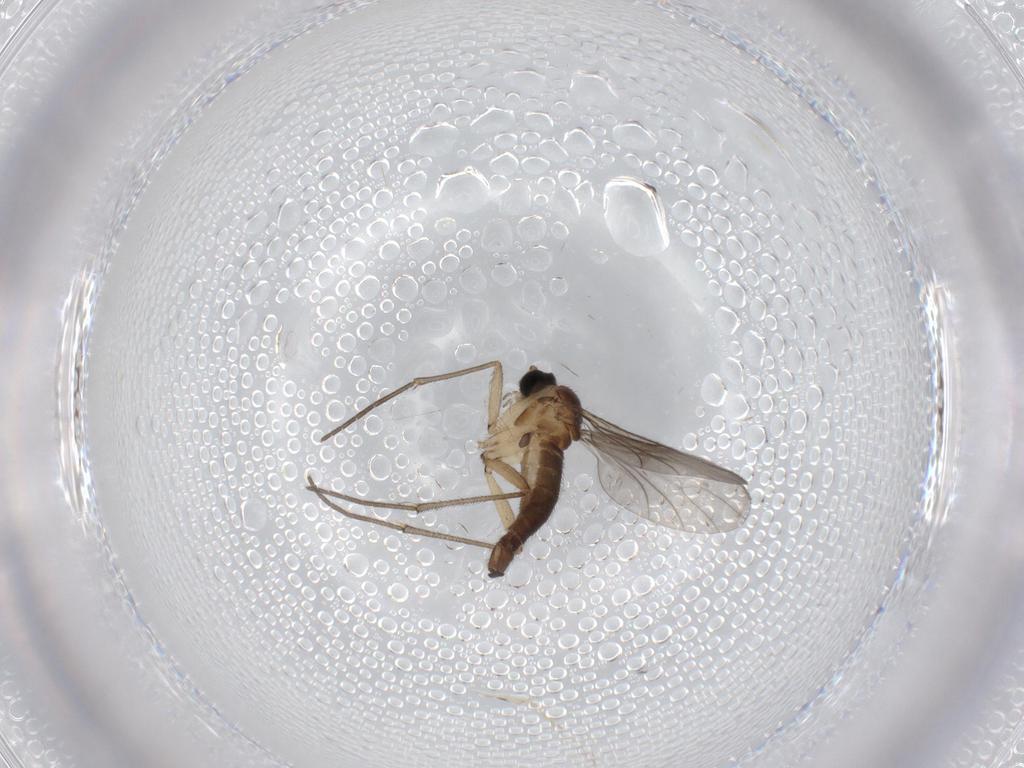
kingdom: Animalia
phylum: Arthropoda
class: Insecta
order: Diptera
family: Sciaridae
